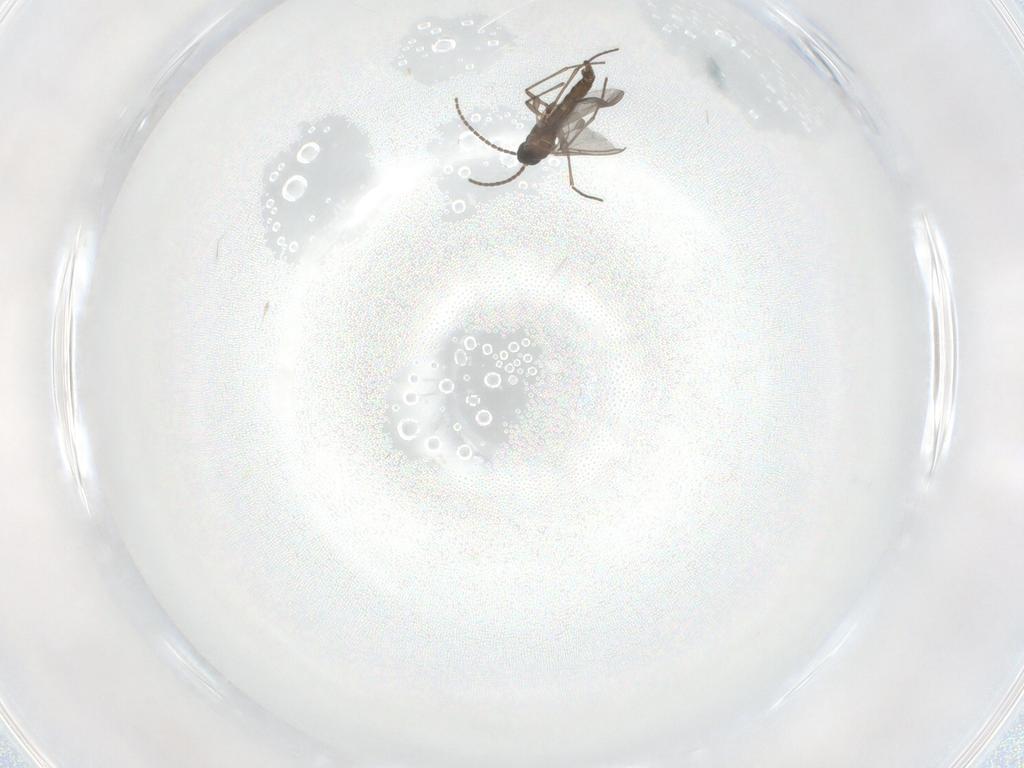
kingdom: Animalia
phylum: Arthropoda
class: Insecta
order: Diptera
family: Sciaridae
